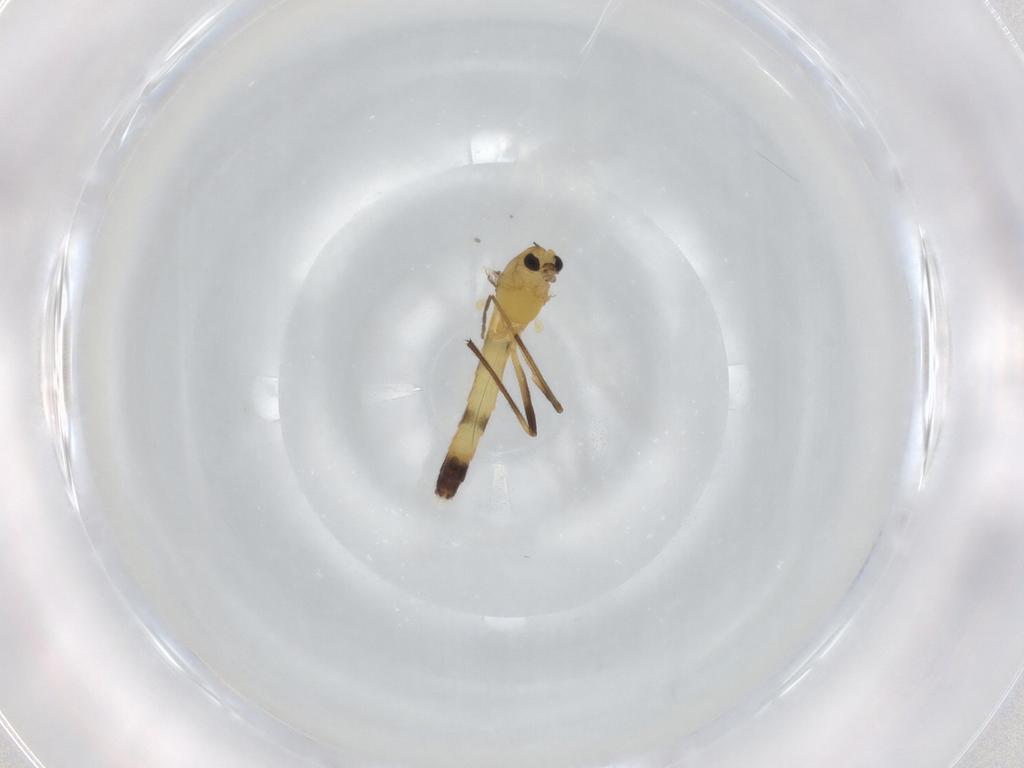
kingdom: Animalia
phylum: Arthropoda
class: Insecta
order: Diptera
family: Chironomidae
